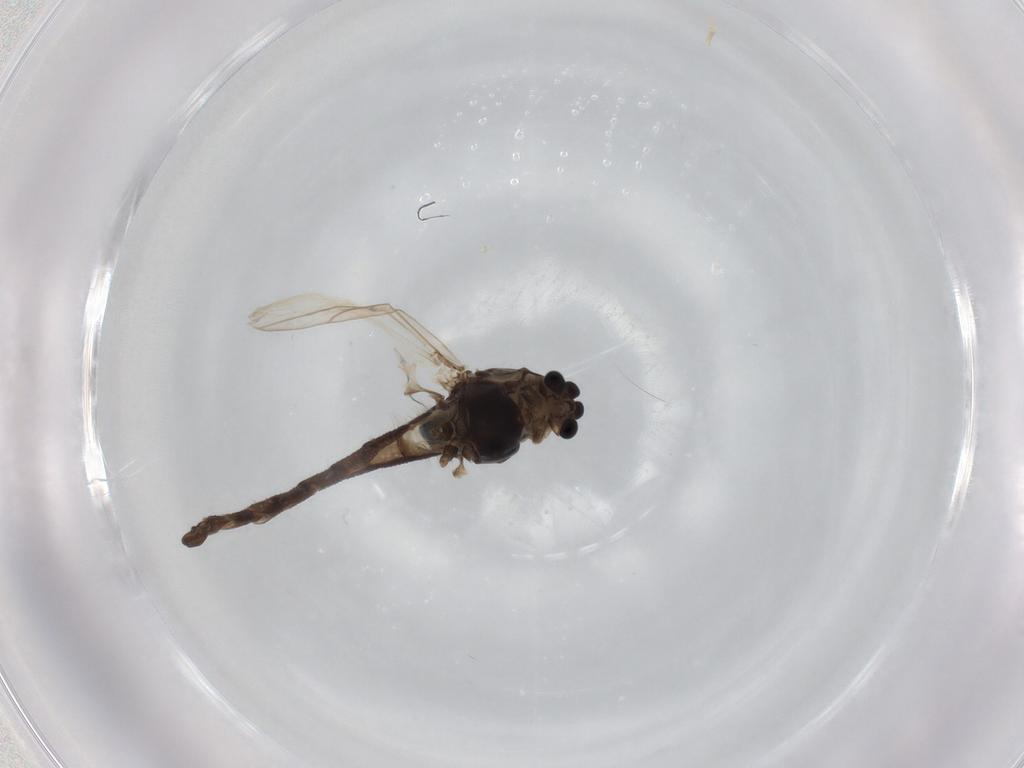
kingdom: Animalia
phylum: Arthropoda
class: Insecta
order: Diptera
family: Chironomidae
